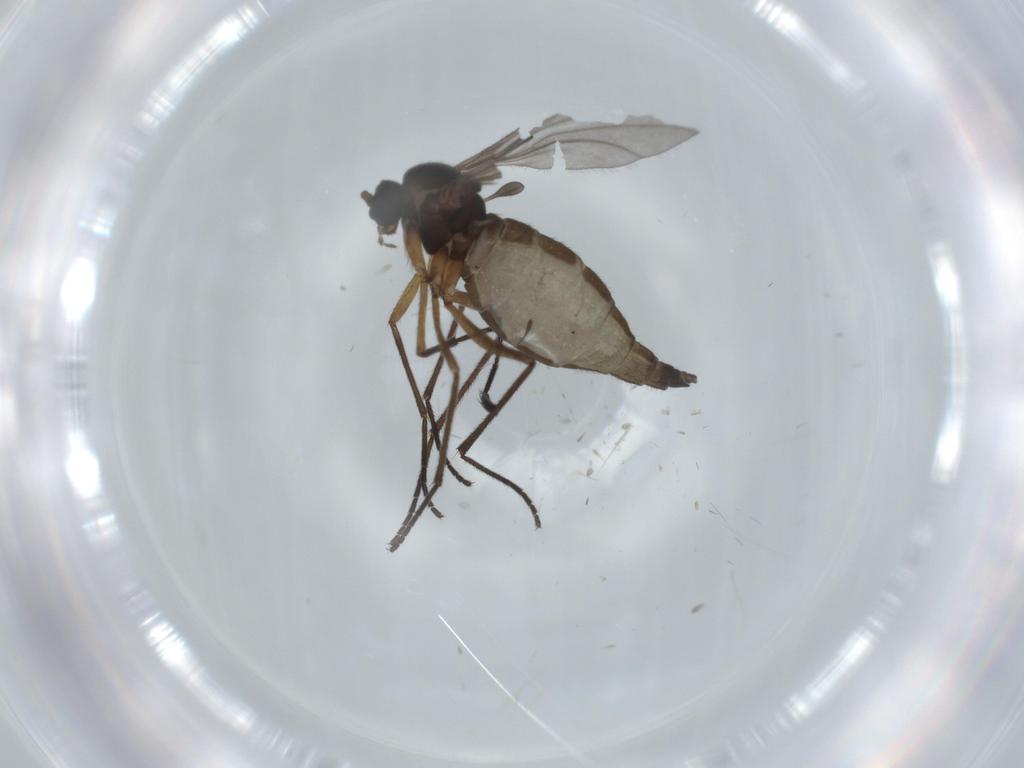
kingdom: Animalia
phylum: Arthropoda
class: Insecta
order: Diptera
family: Sciaridae
